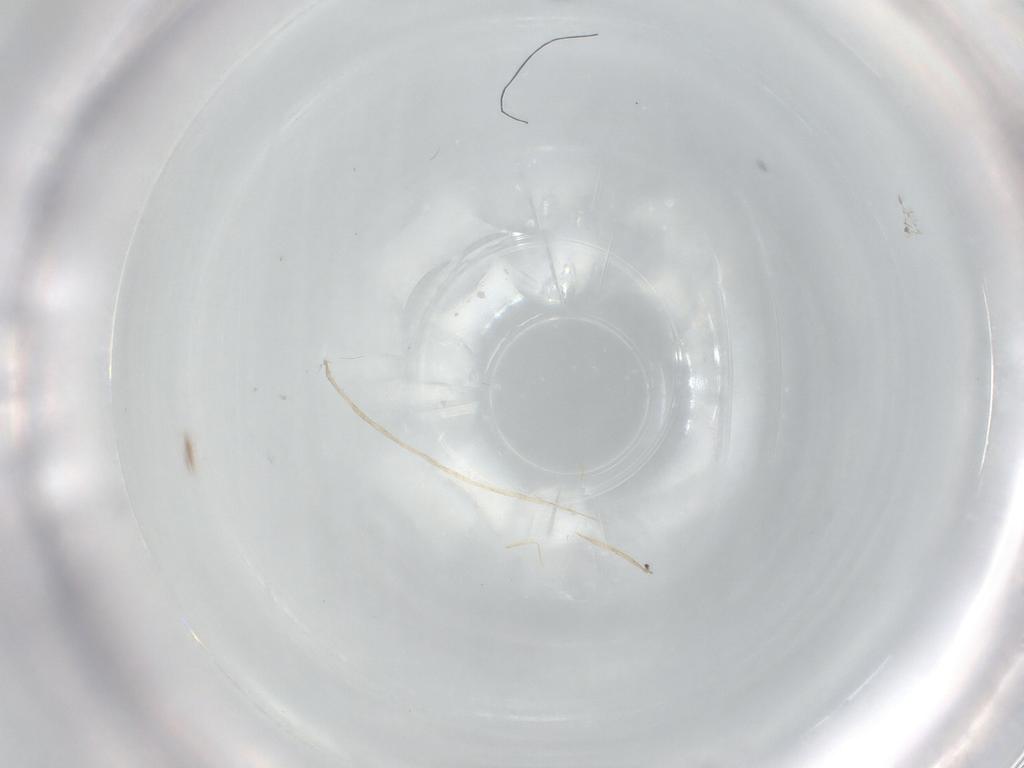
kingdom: Animalia
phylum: Arthropoda
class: Insecta
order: Diptera
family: Phoridae
